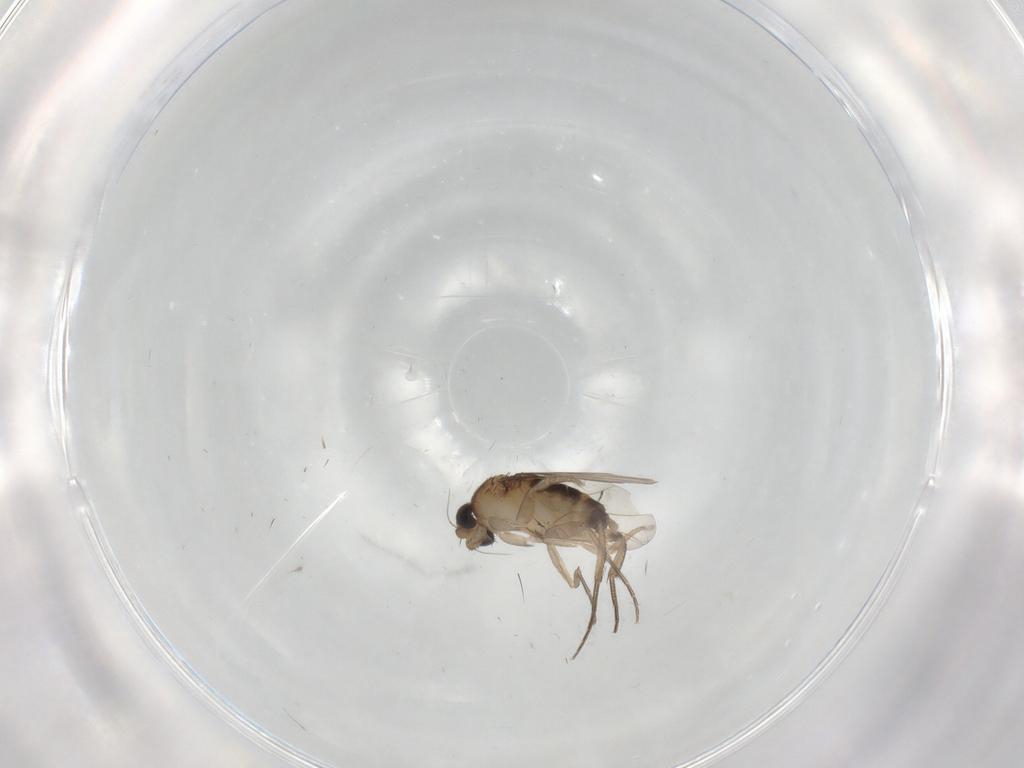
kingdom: Animalia
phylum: Arthropoda
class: Insecta
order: Diptera
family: Phoridae
